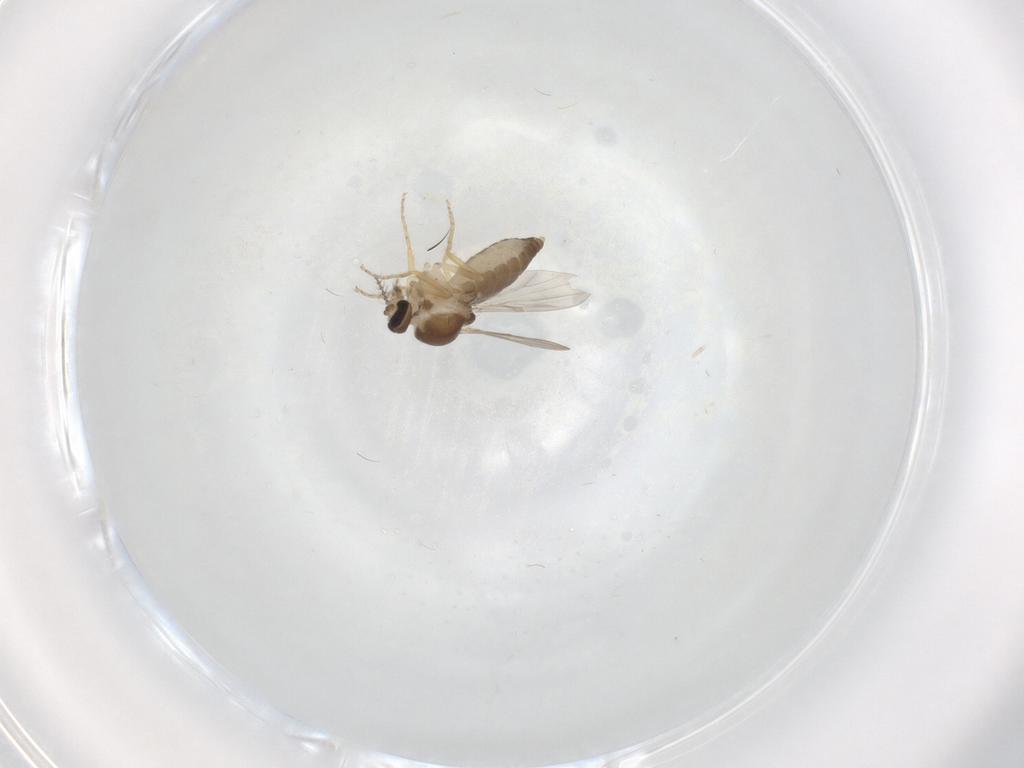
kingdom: Animalia
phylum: Arthropoda
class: Insecta
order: Diptera
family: Ceratopogonidae
